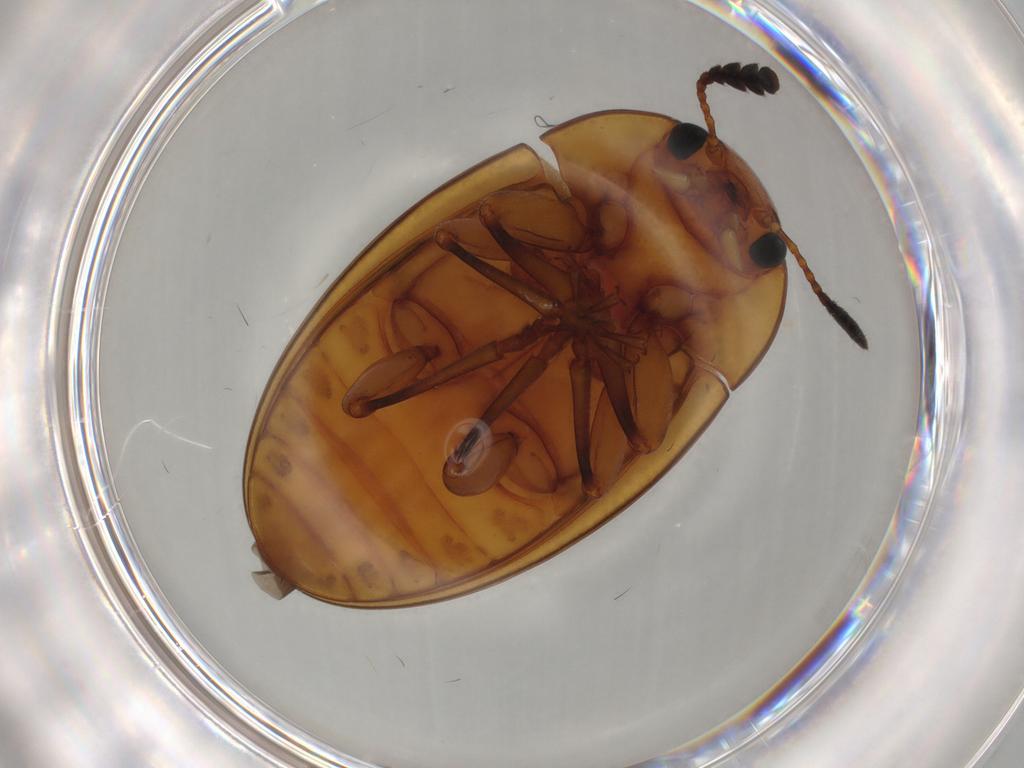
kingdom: Animalia
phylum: Arthropoda
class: Insecta
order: Coleoptera
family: Erotylidae
